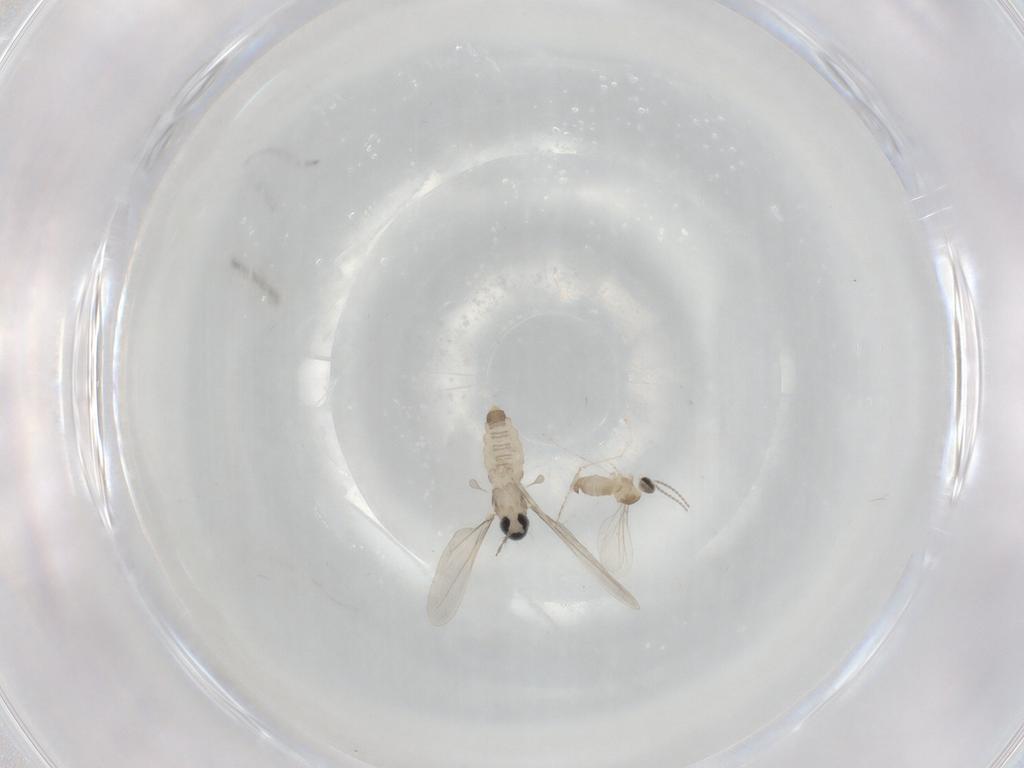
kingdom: Animalia
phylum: Arthropoda
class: Insecta
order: Diptera
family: Cecidomyiidae
